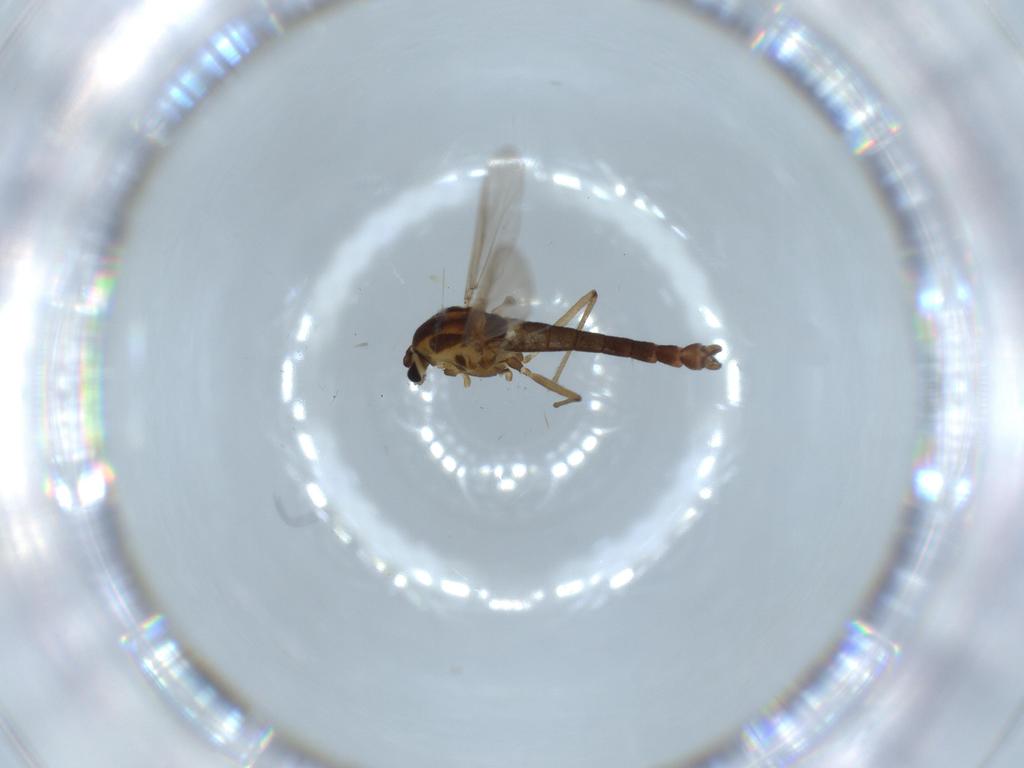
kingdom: Animalia
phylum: Arthropoda
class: Insecta
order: Diptera
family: Chironomidae
